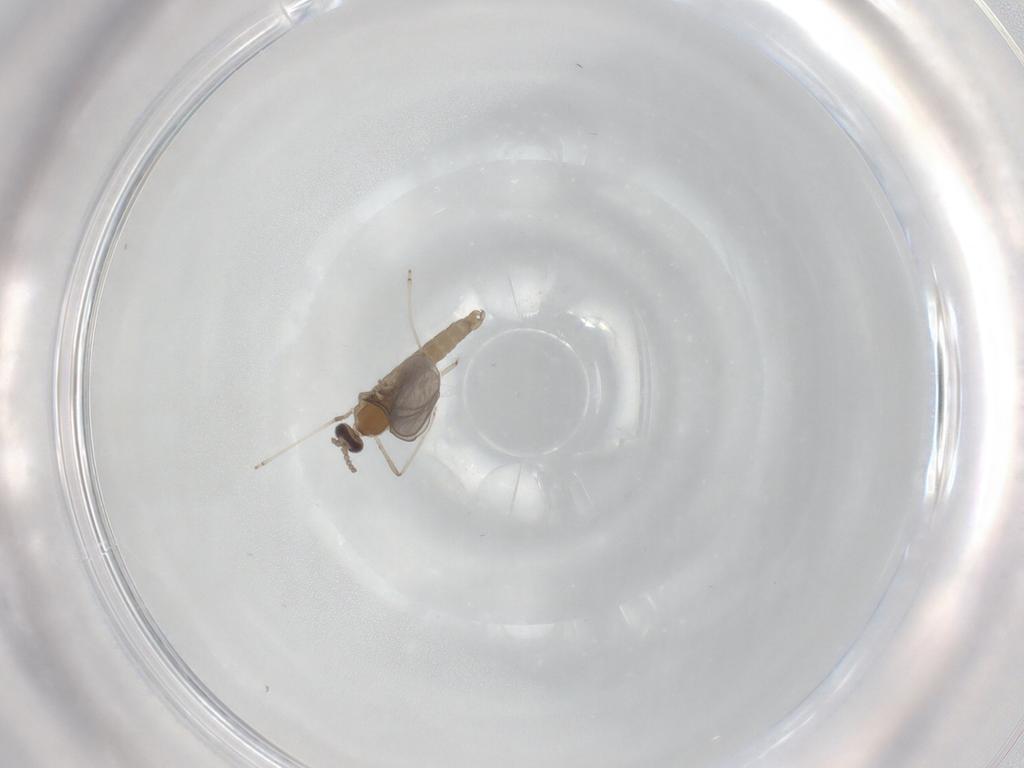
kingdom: Animalia
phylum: Arthropoda
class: Insecta
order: Diptera
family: Cecidomyiidae
